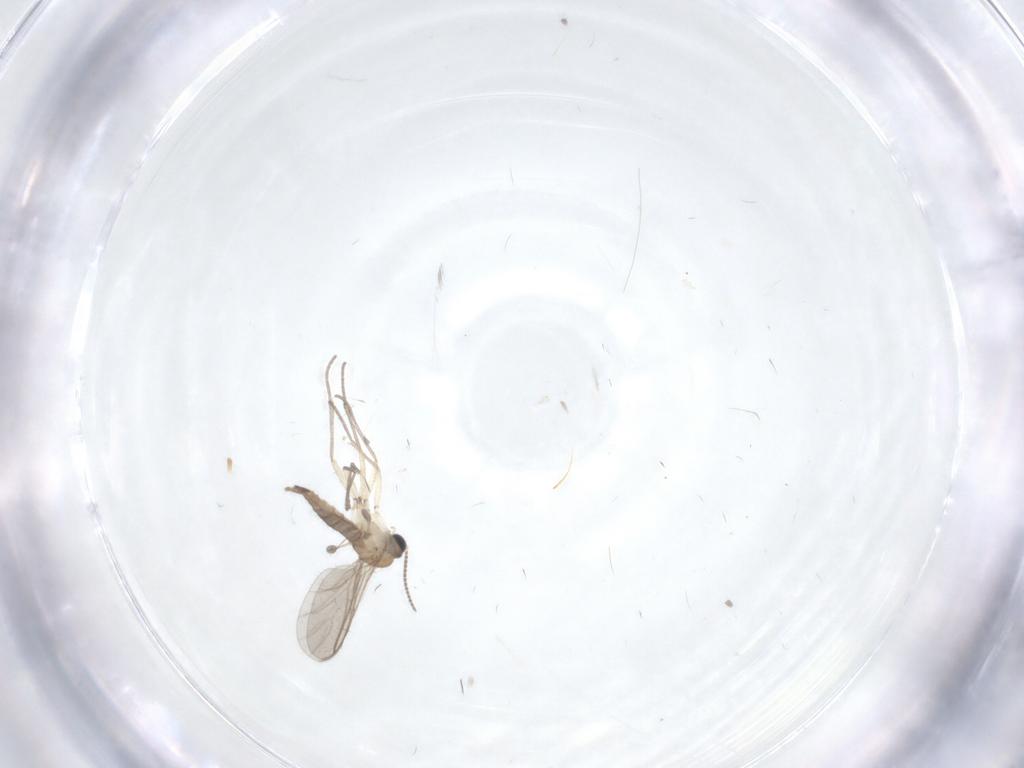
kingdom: Animalia
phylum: Arthropoda
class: Insecta
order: Diptera
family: Sciaridae
